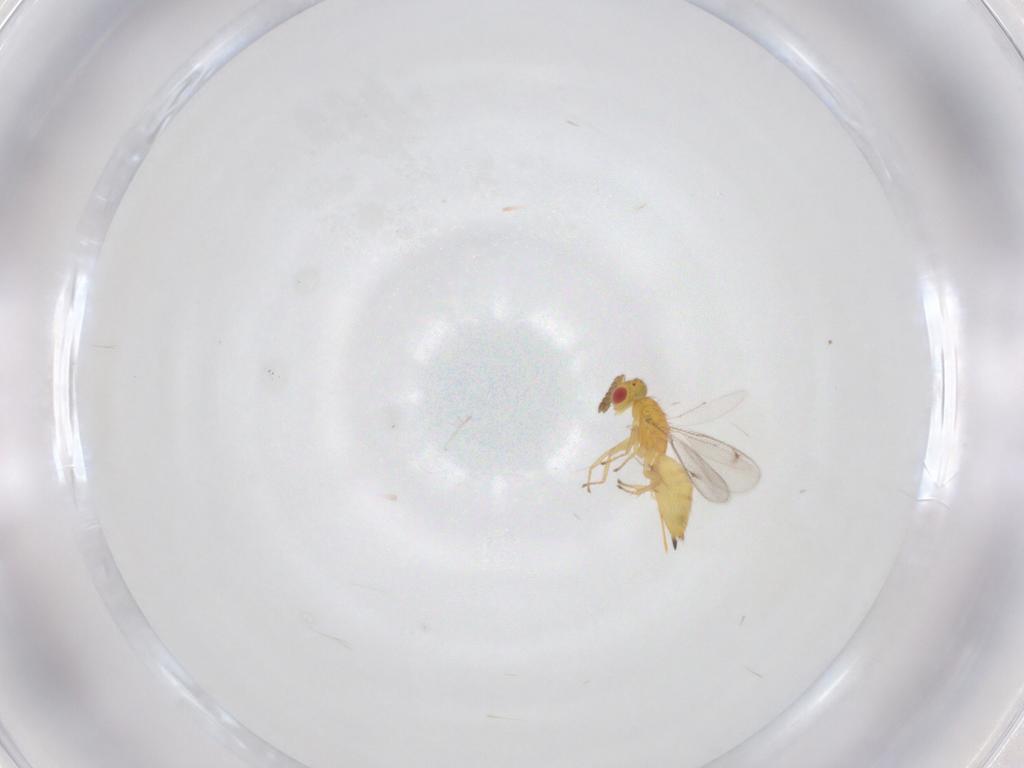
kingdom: Animalia
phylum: Arthropoda
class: Insecta
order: Hymenoptera
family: Eulophidae
